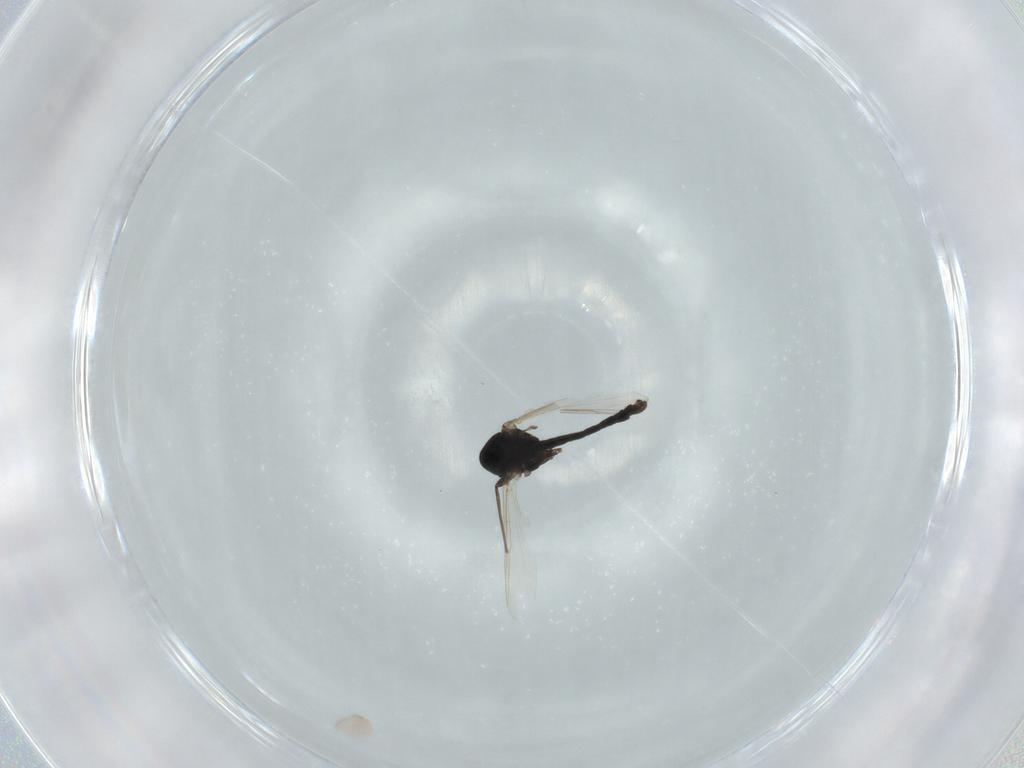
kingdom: Animalia
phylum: Arthropoda
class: Insecta
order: Diptera
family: Chironomidae
